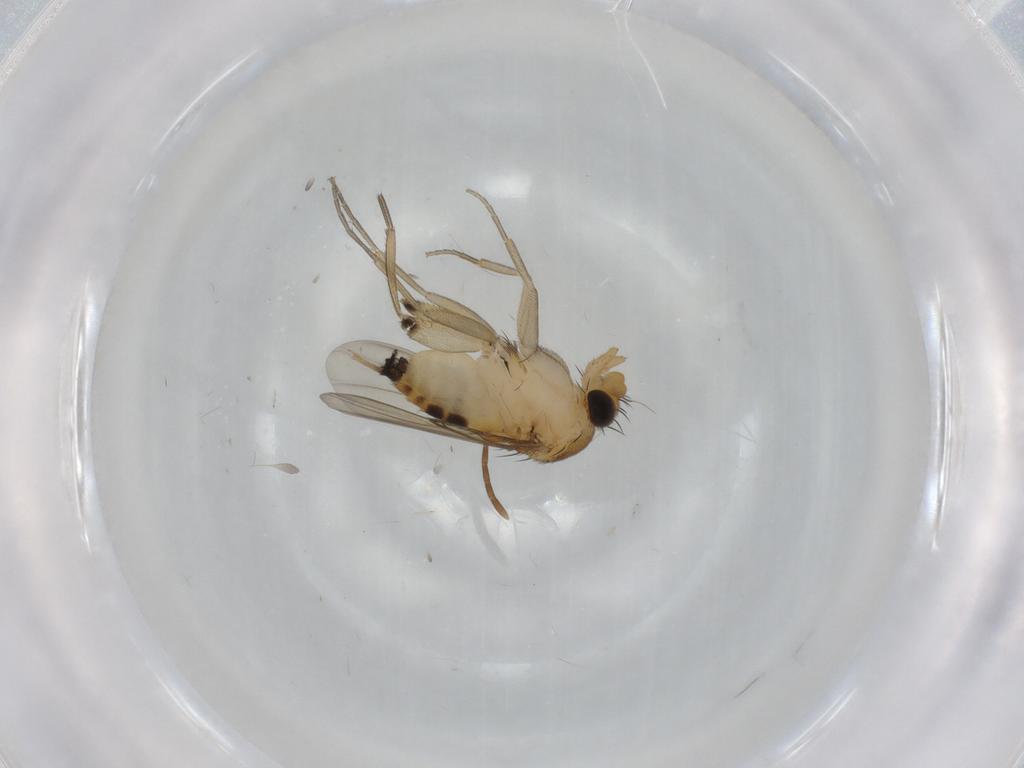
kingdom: Animalia
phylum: Arthropoda
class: Insecta
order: Diptera
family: Phoridae
